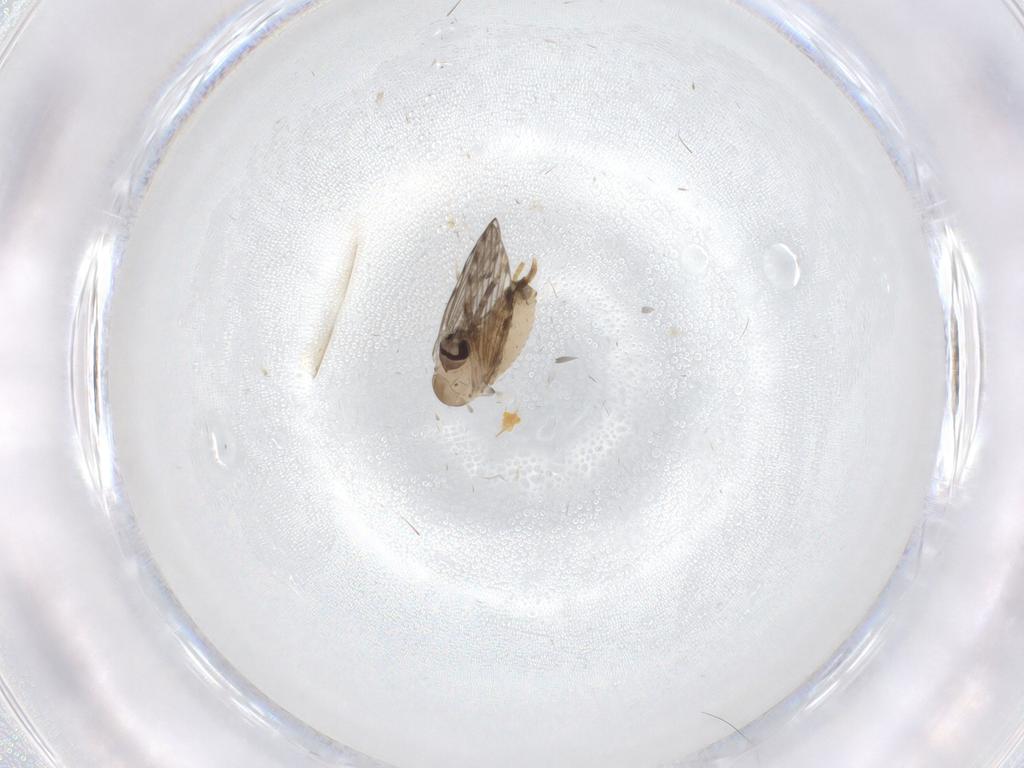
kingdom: Animalia
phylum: Arthropoda
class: Insecta
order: Diptera
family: Psychodidae
